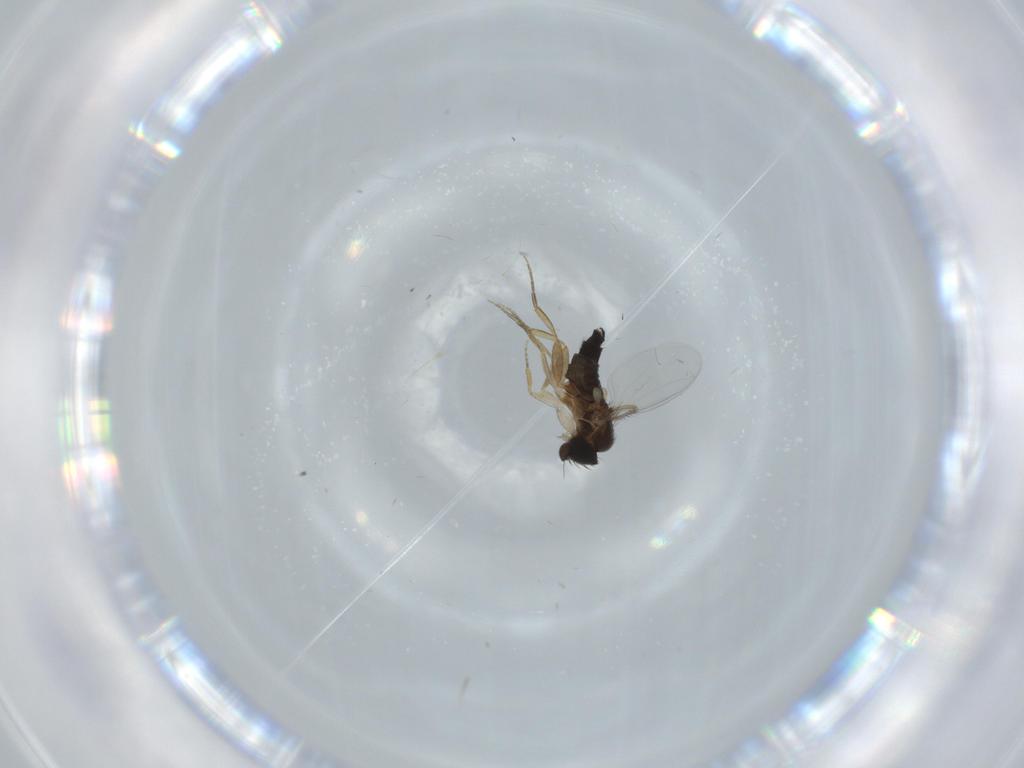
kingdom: Animalia
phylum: Arthropoda
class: Insecta
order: Diptera
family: Phoridae
